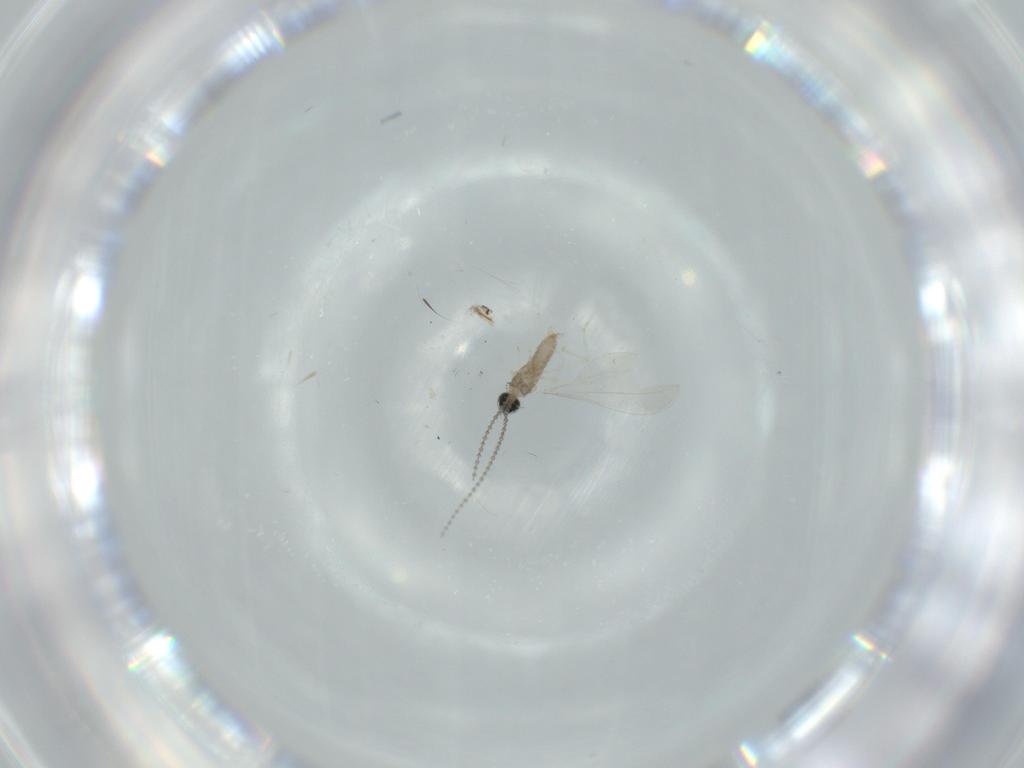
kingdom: Animalia
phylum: Arthropoda
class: Insecta
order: Diptera
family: Cecidomyiidae
